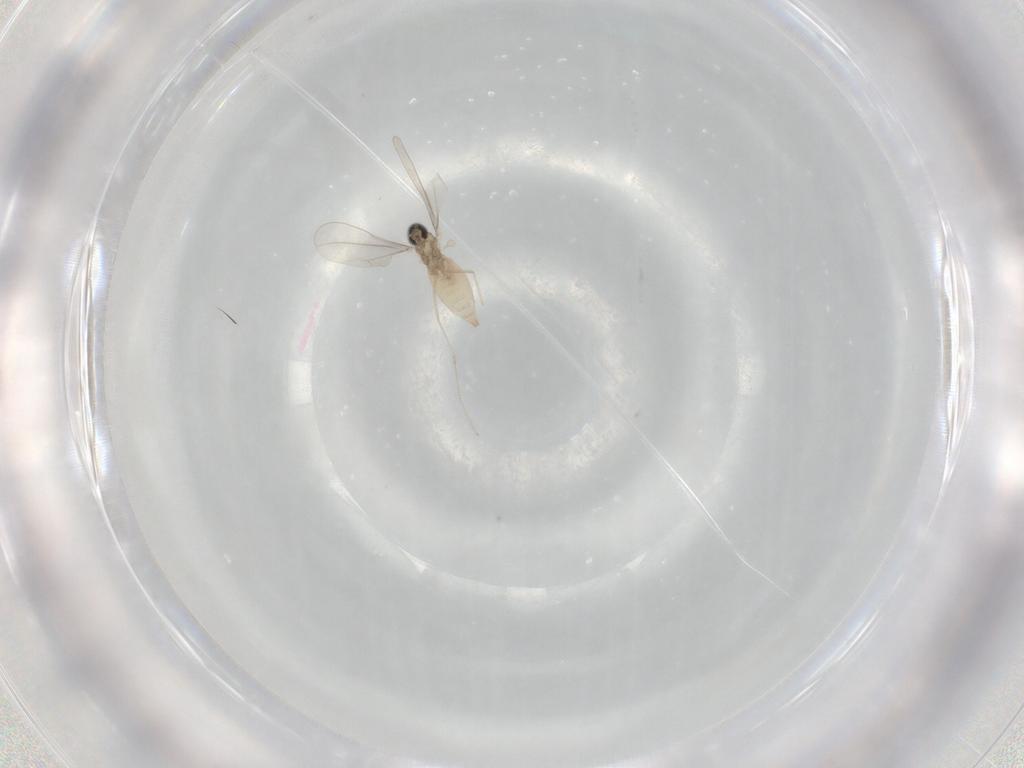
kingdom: Animalia
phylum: Arthropoda
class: Insecta
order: Diptera
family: Cecidomyiidae
